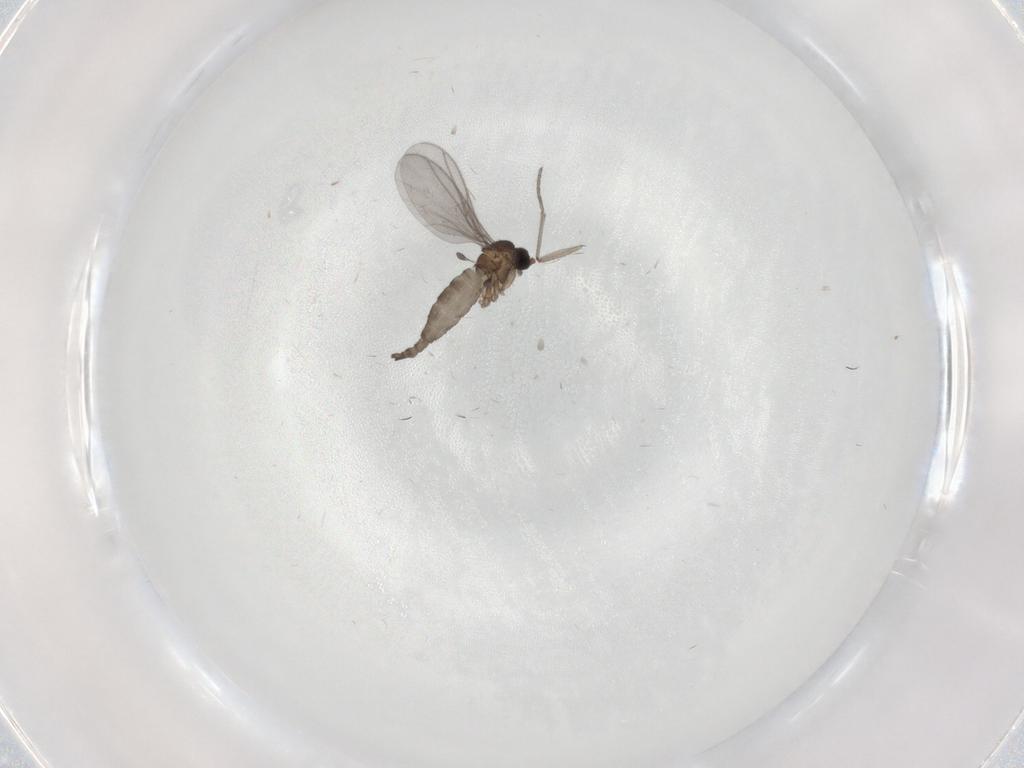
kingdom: Animalia
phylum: Arthropoda
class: Insecta
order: Diptera
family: Sciaridae
